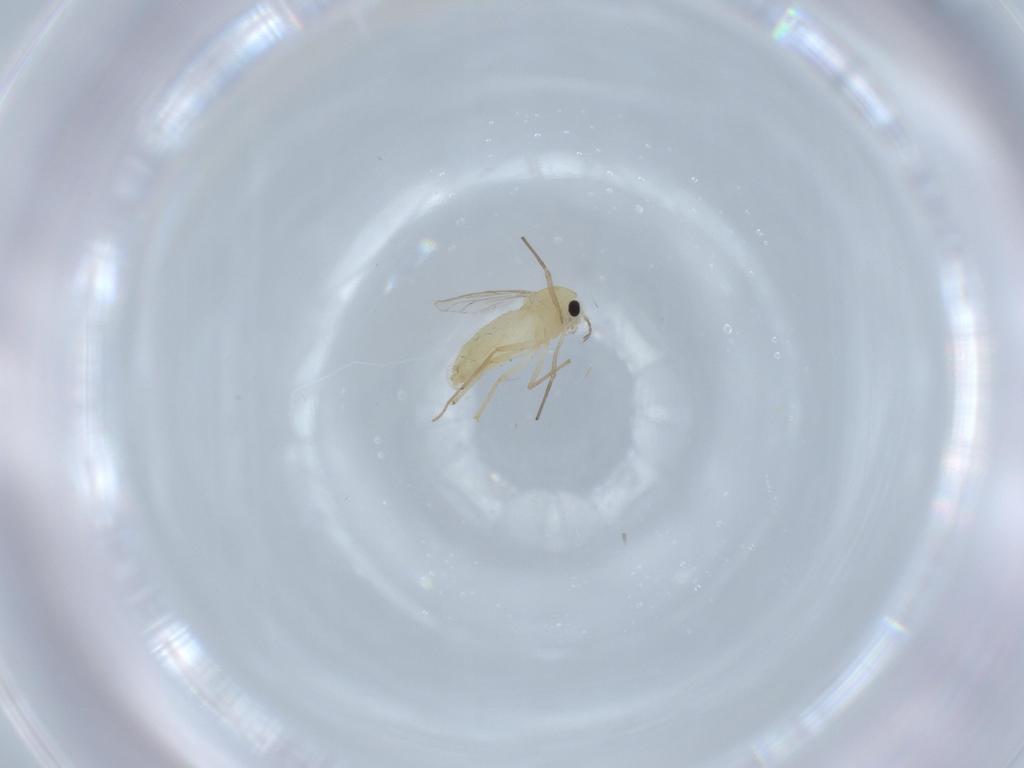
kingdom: Animalia
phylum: Arthropoda
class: Insecta
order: Diptera
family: Chironomidae
